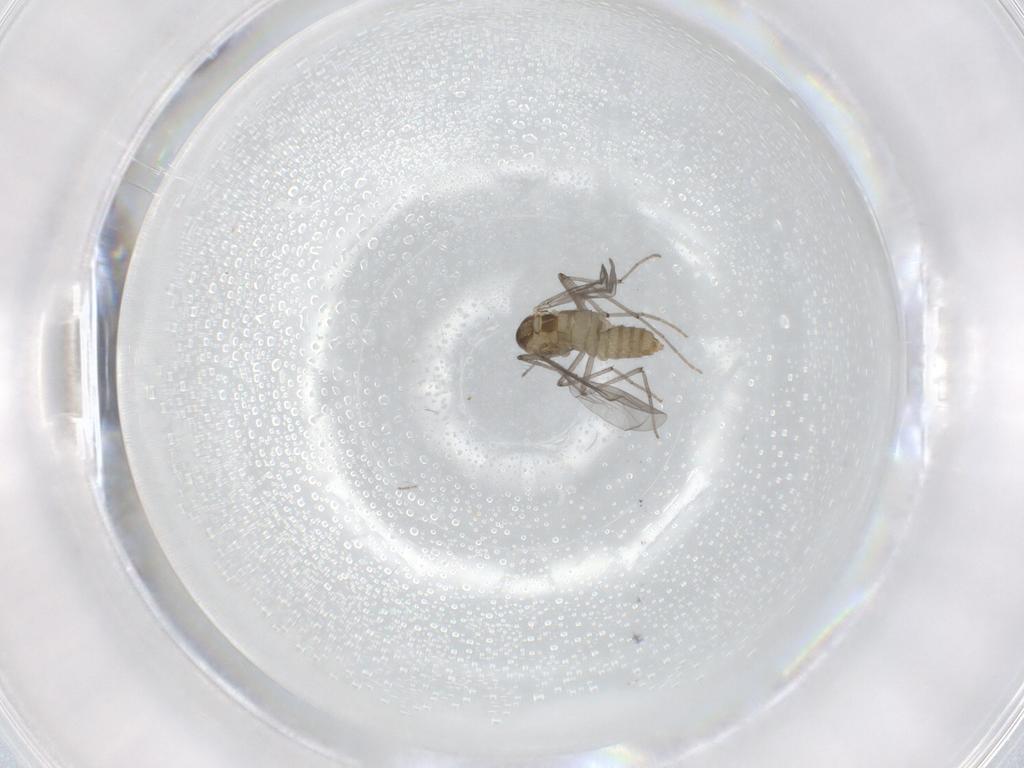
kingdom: Animalia
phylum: Arthropoda
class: Insecta
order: Diptera
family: Chironomidae
